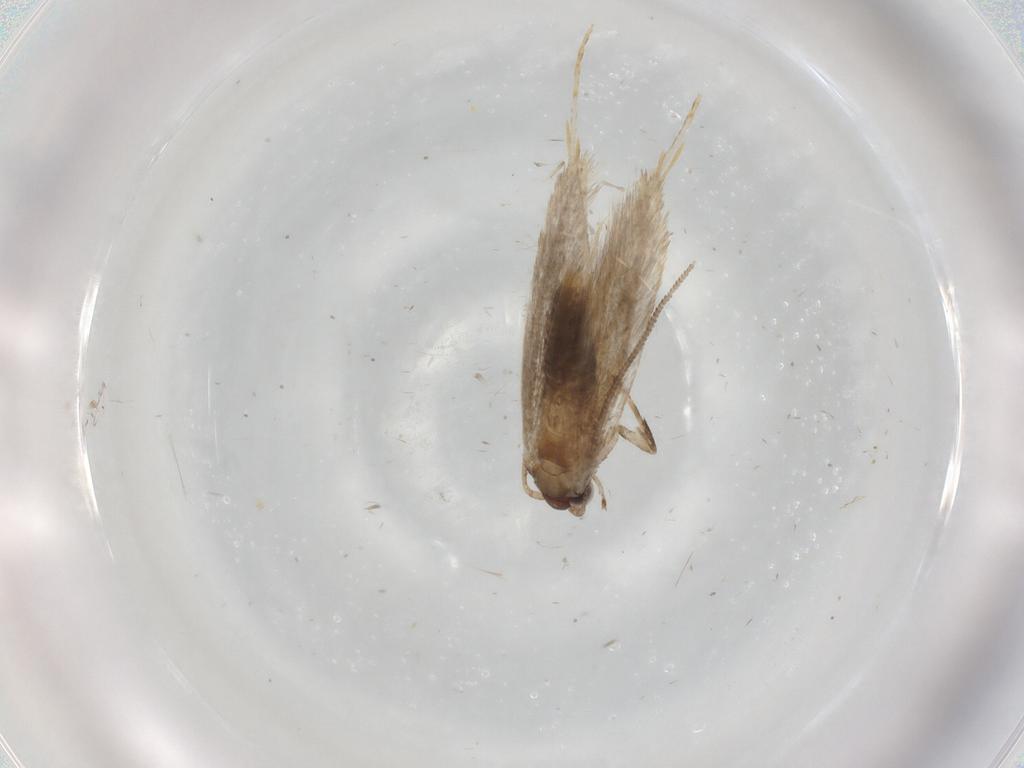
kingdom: Animalia
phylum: Arthropoda
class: Insecta
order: Lepidoptera
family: Tineidae
